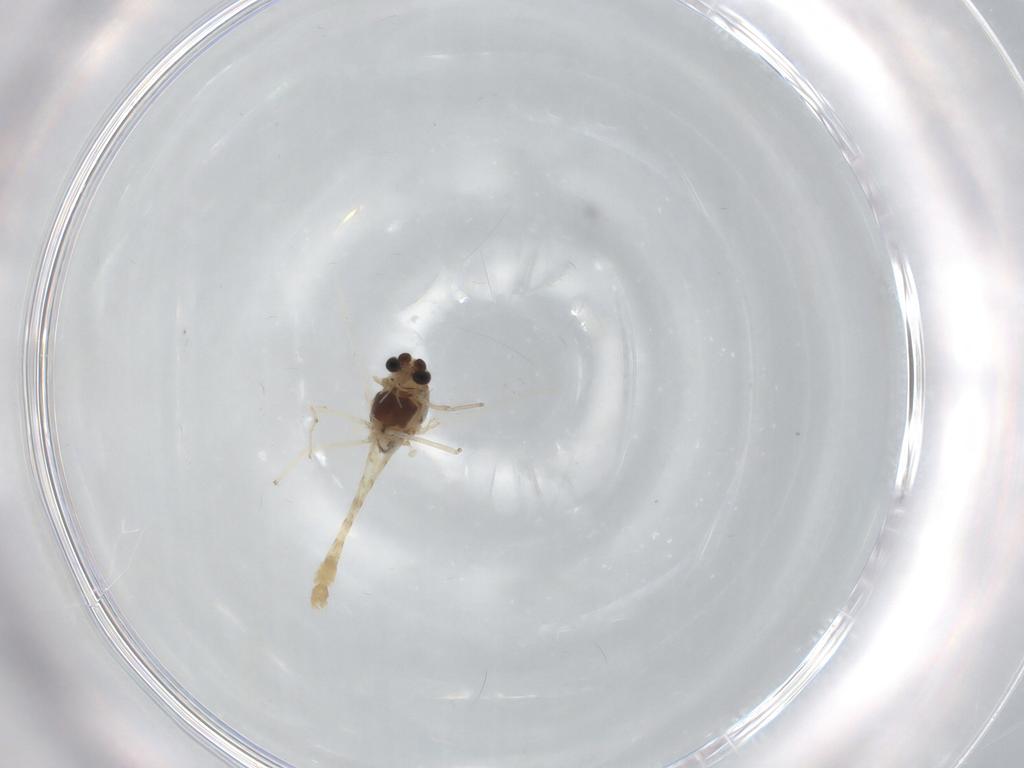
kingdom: Animalia
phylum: Arthropoda
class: Insecta
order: Diptera
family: Chironomidae
